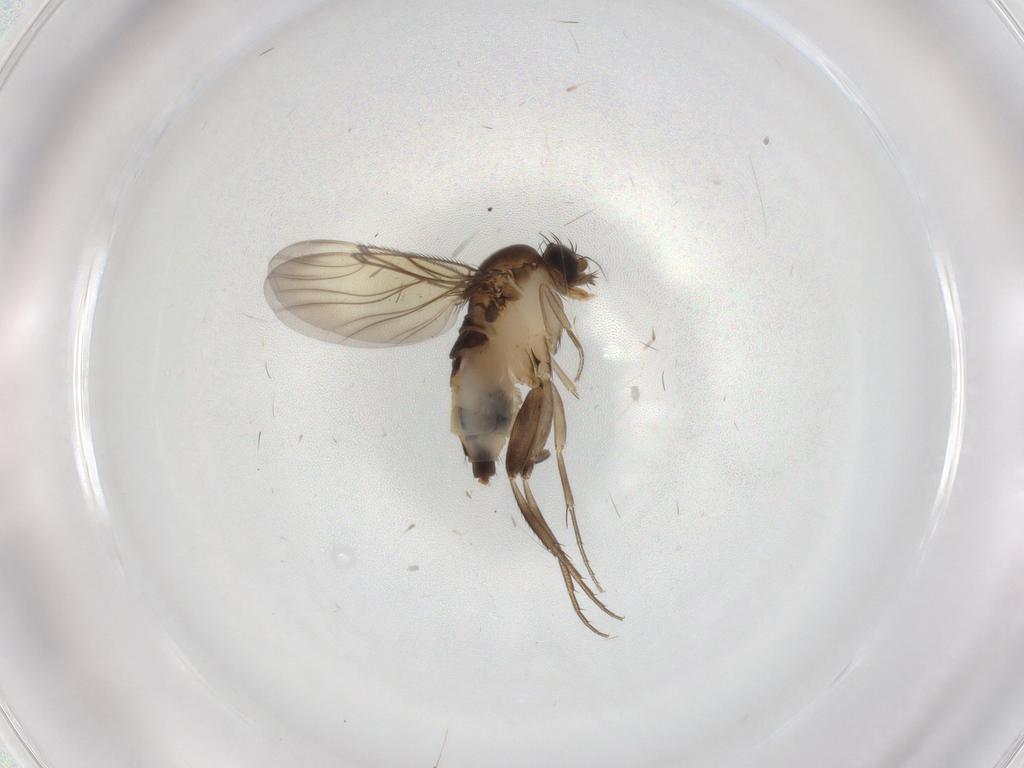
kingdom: Animalia
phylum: Arthropoda
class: Insecta
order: Diptera
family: Phoridae
